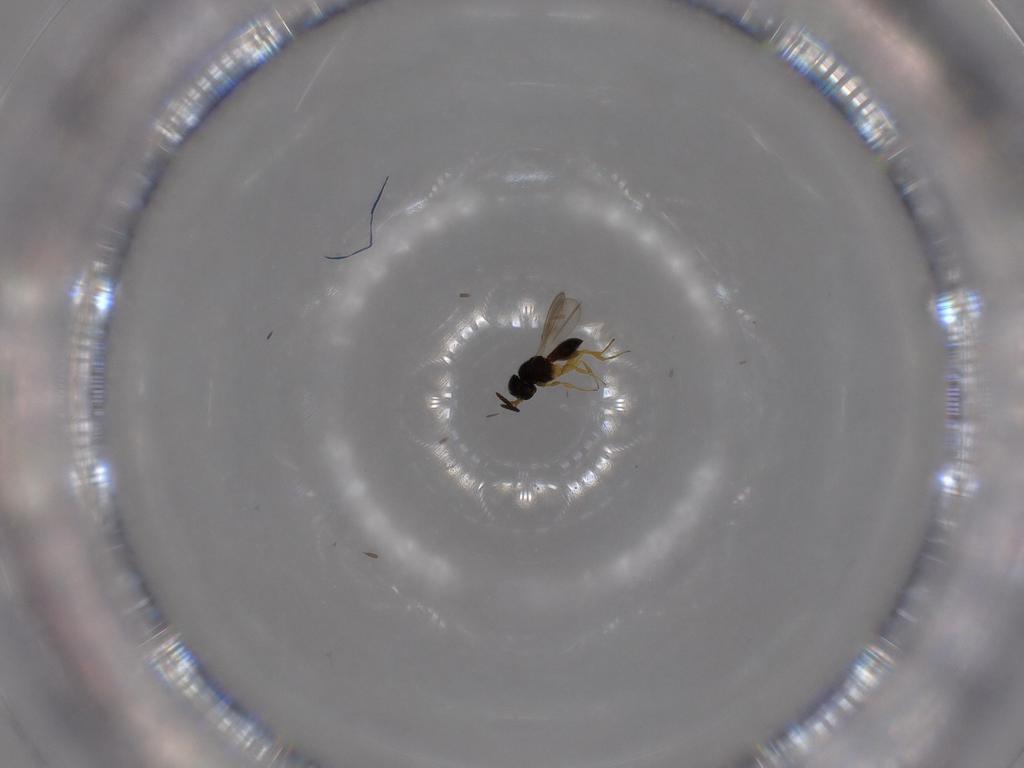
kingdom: Animalia
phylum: Arthropoda
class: Insecta
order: Hymenoptera
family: Scelionidae
